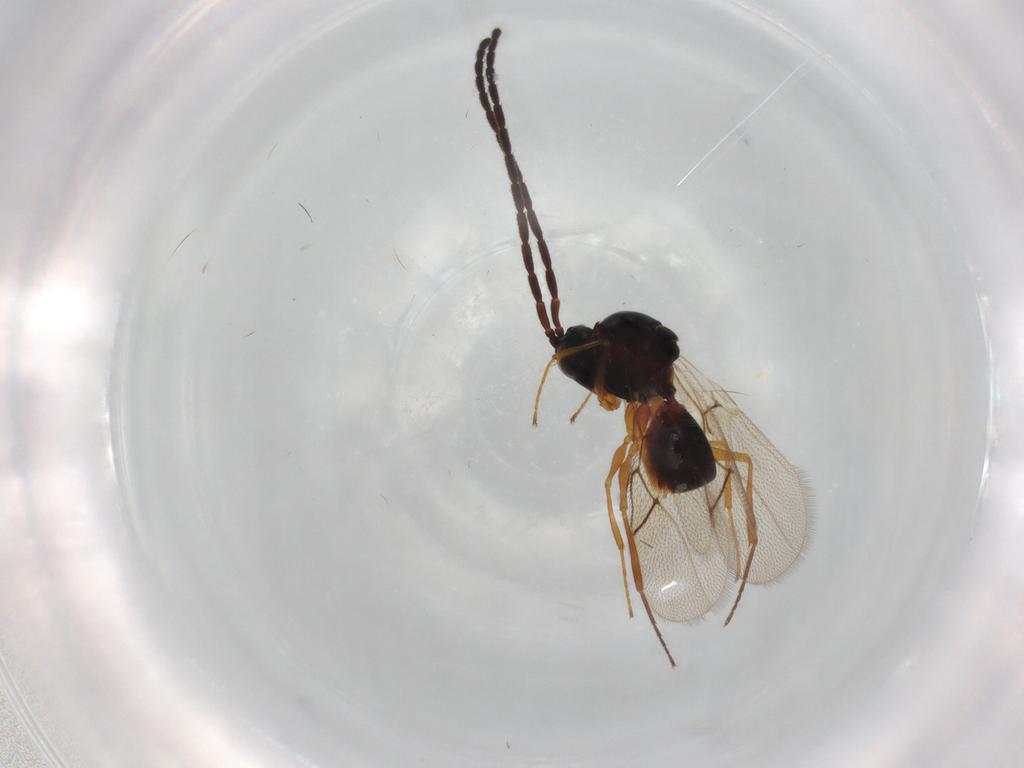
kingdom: Animalia
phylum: Arthropoda
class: Insecta
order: Hymenoptera
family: Figitidae
